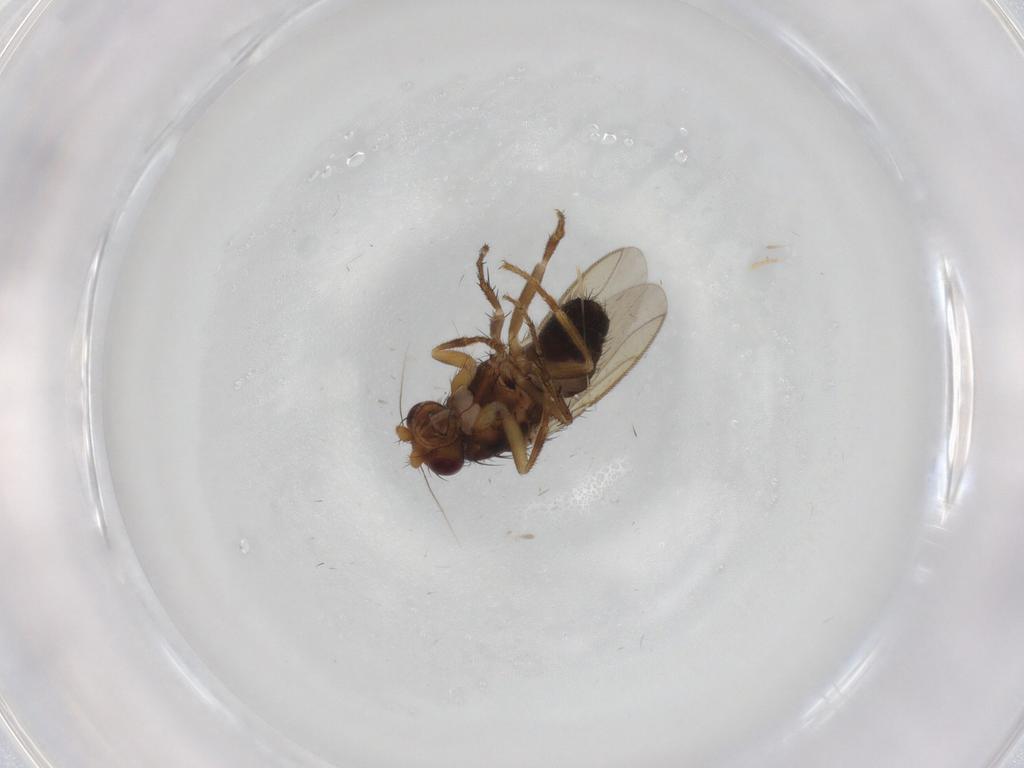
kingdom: Animalia
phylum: Arthropoda
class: Insecta
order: Diptera
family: Sphaeroceridae
